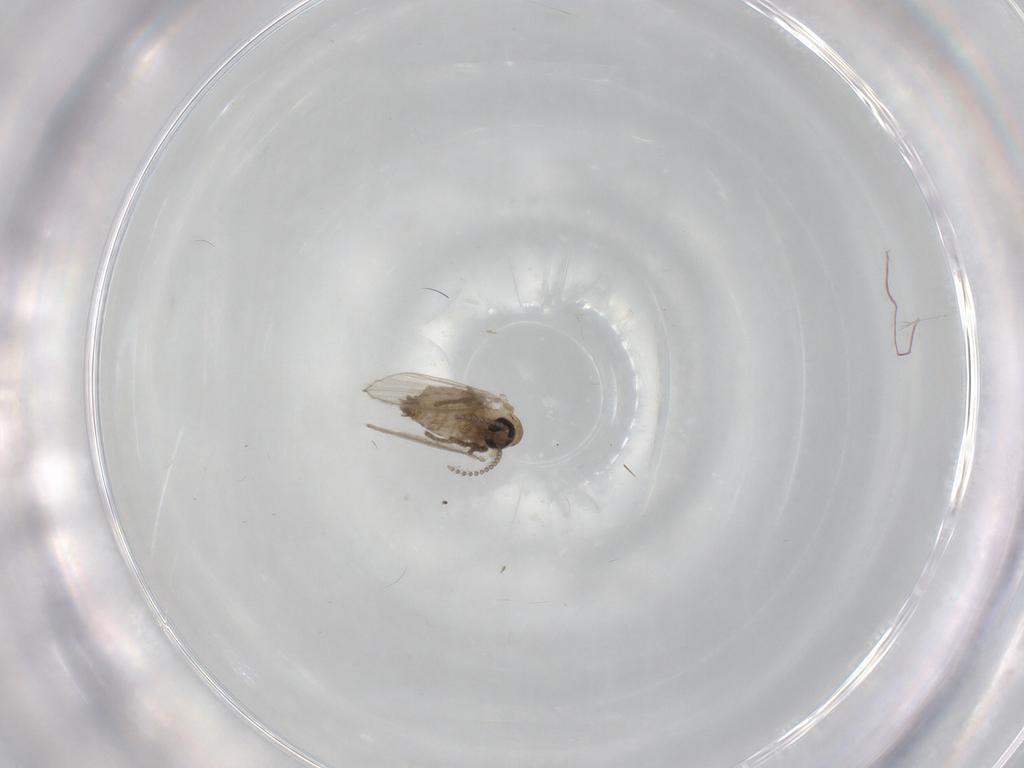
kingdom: Animalia
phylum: Arthropoda
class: Insecta
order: Diptera
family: Psychodidae
